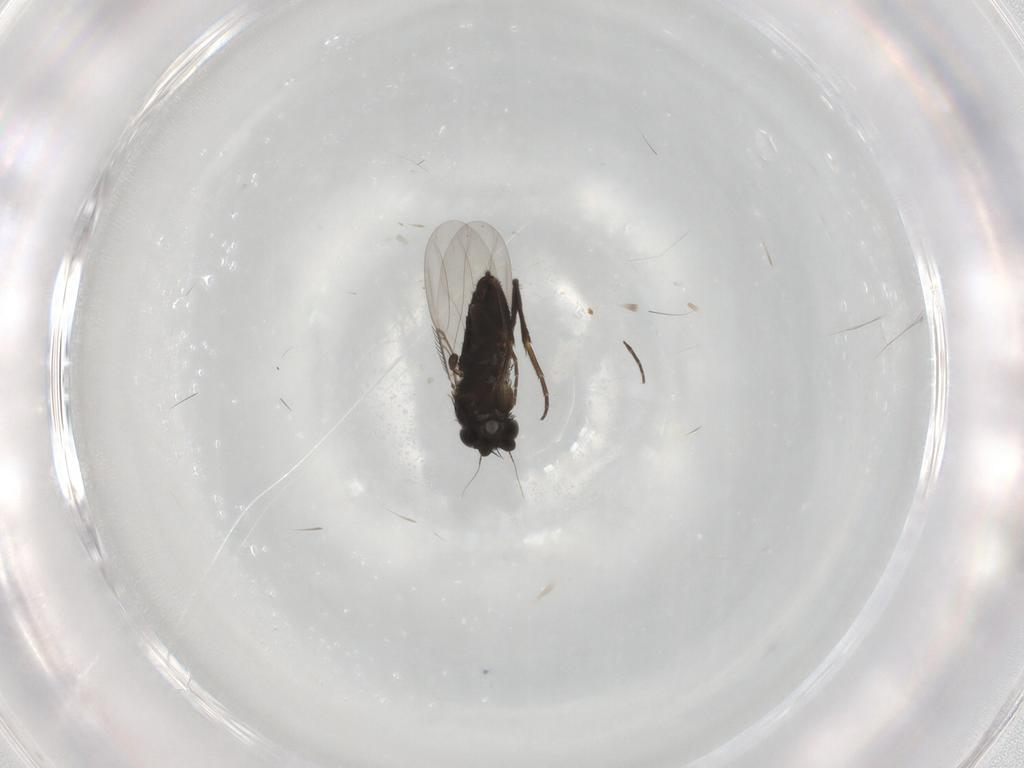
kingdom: Animalia
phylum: Arthropoda
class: Insecta
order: Diptera
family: Phoridae
